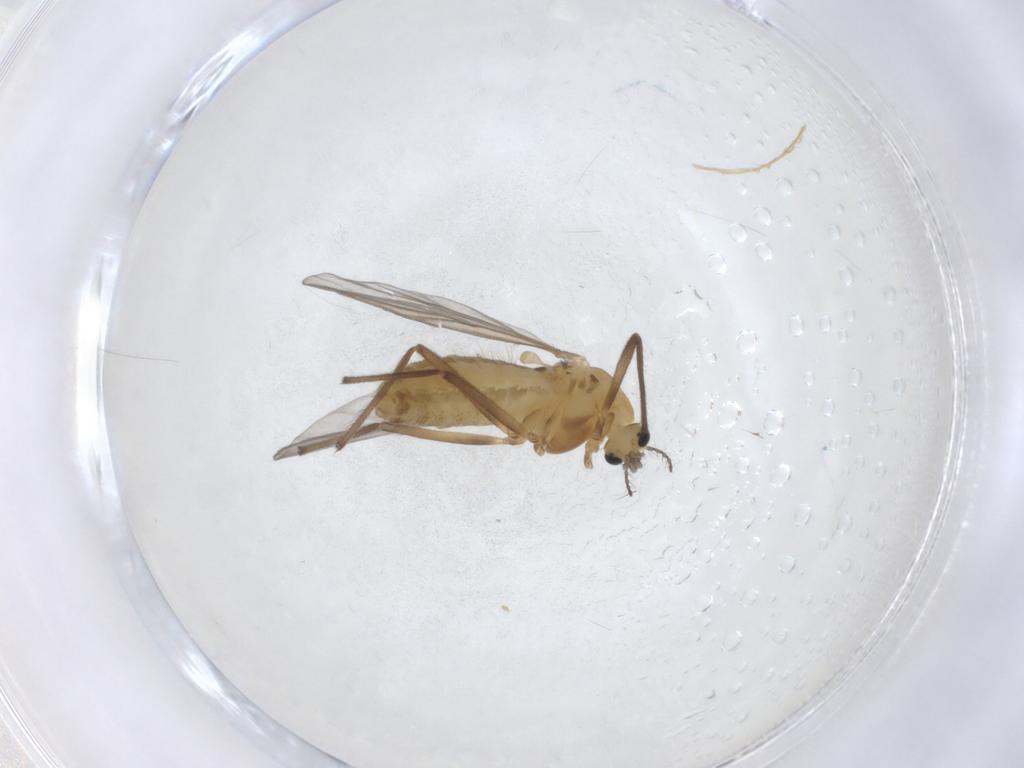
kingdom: Animalia
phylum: Arthropoda
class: Insecta
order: Diptera
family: Chironomidae
